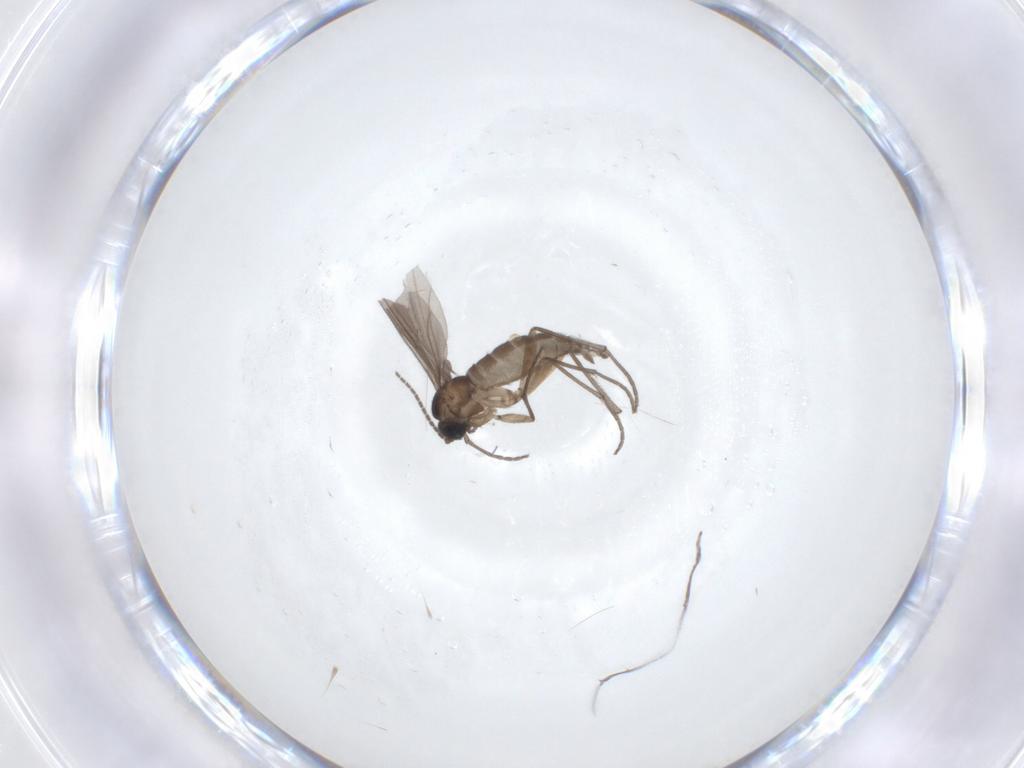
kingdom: Animalia
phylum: Arthropoda
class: Insecta
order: Diptera
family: Sciaridae
